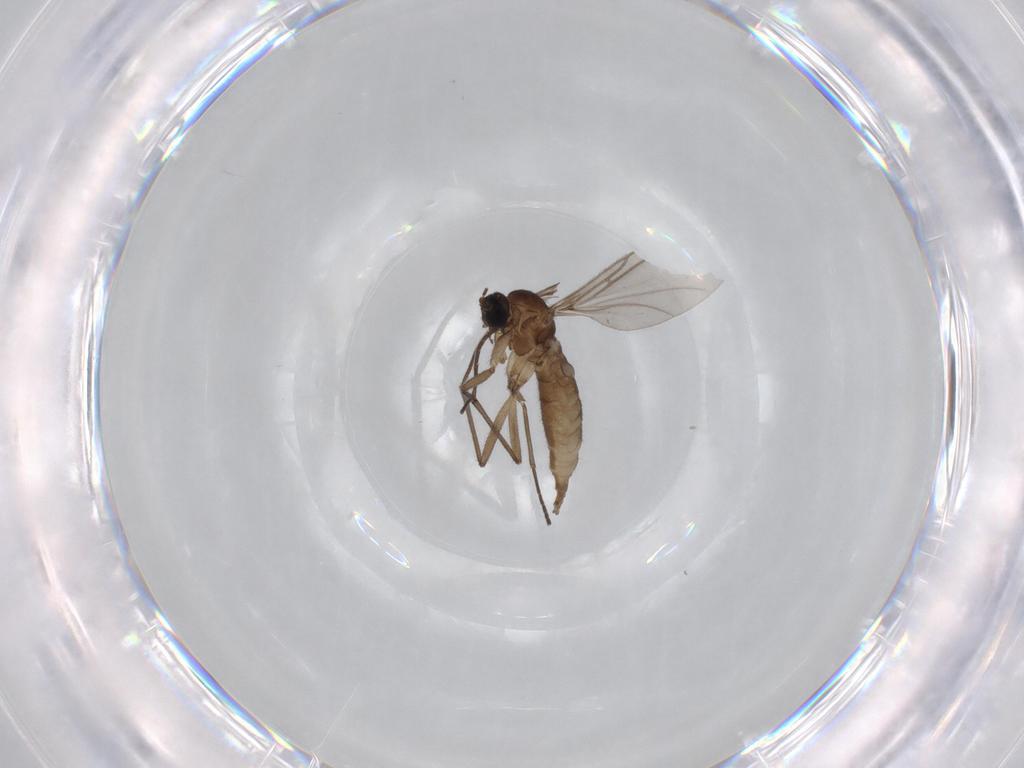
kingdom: Animalia
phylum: Arthropoda
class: Insecta
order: Diptera
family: Sciaridae
